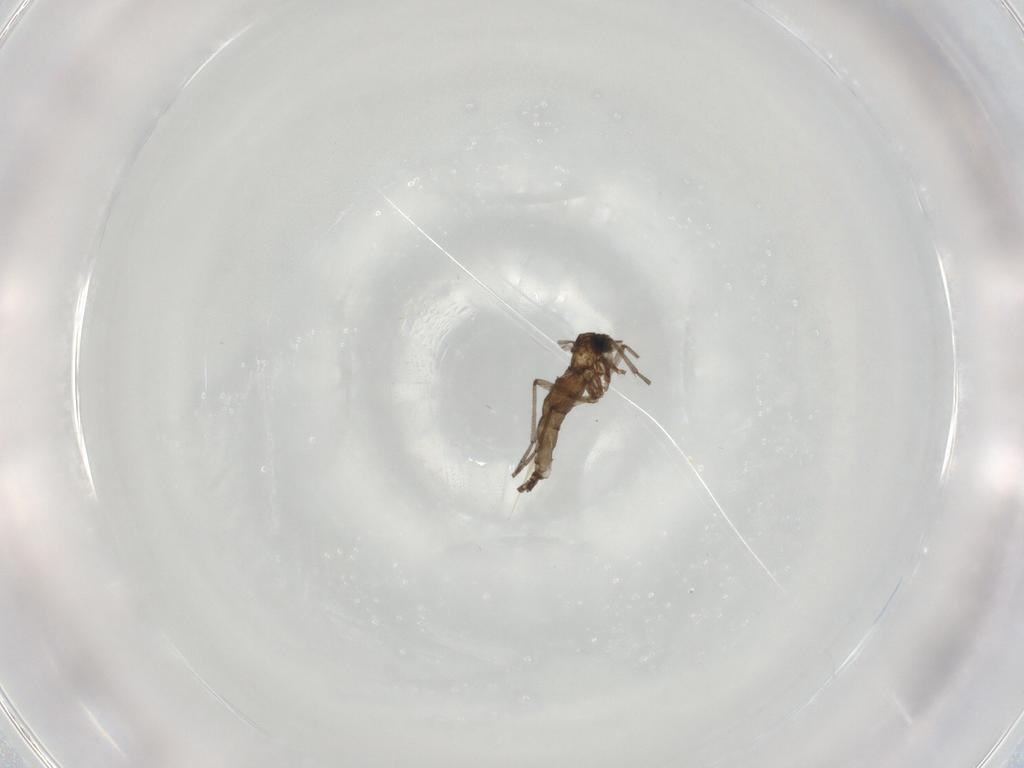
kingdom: Animalia
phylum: Arthropoda
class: Insecta
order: Diptera
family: Sciaridae
